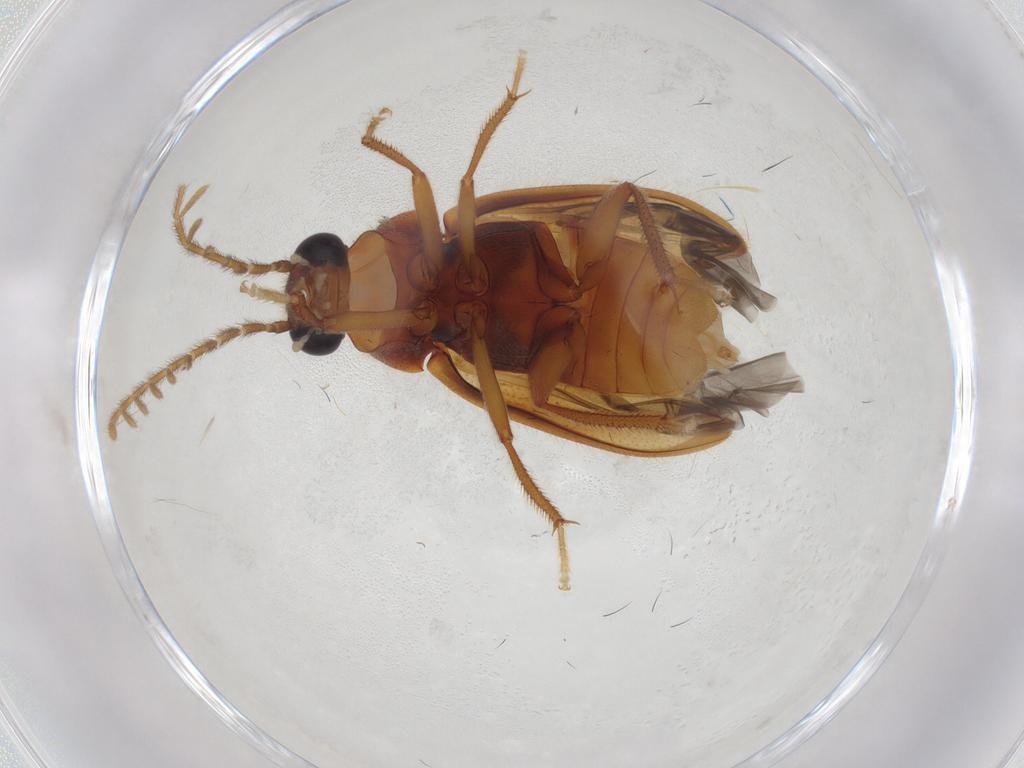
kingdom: Animalia
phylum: Arthropoda
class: Insecta
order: Coleoptera
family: Ptilodactylidae
